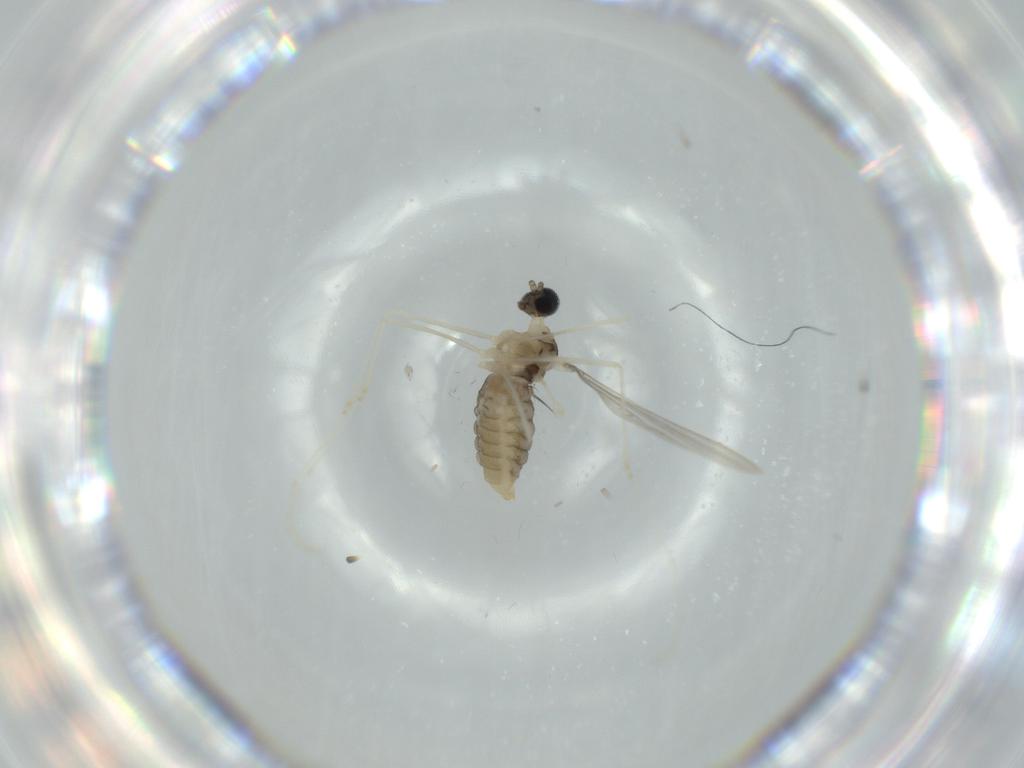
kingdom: Animalia
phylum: Arthropoda
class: Insecta
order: Diptera
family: Cecidomyiidae
